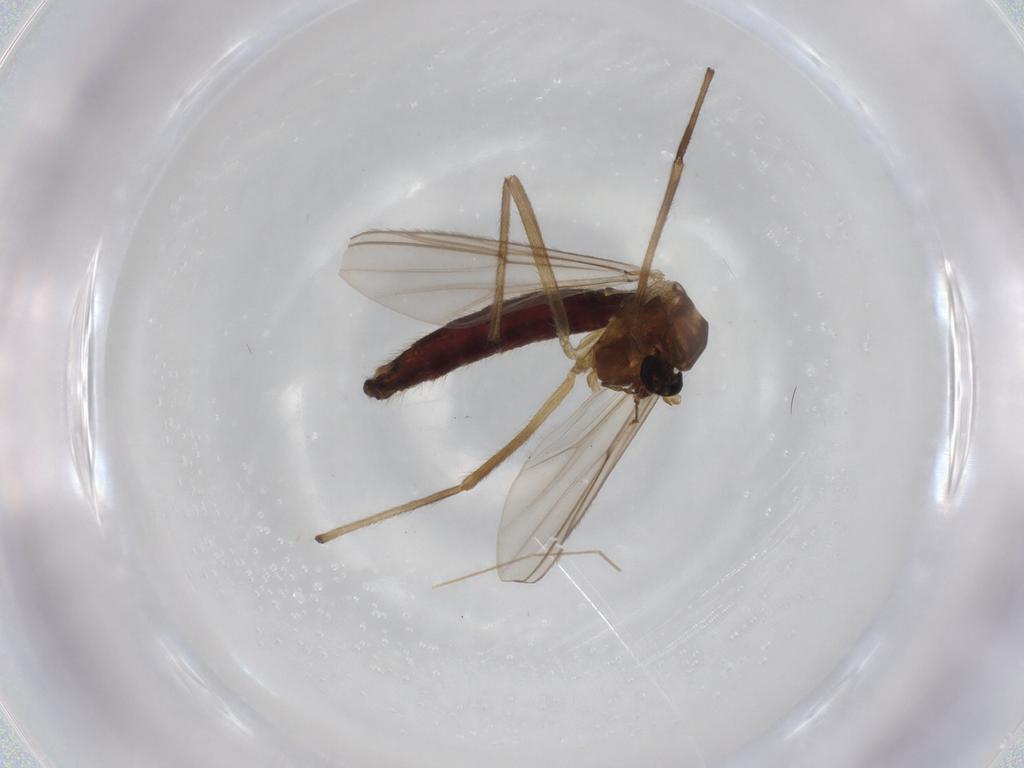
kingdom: Animalia
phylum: Arthropoda
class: Insecta
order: Diptera
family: Chironomidae
